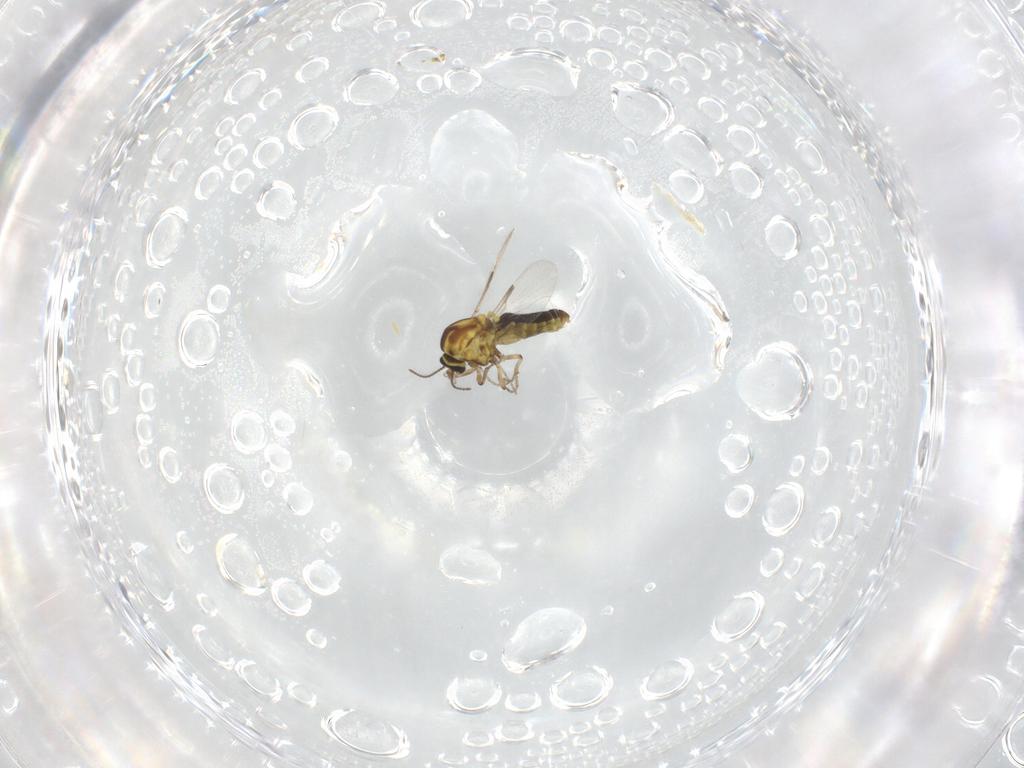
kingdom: Animalia
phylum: Arthropoda
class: Insecta
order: Diptera
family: Ceratopogonidae
